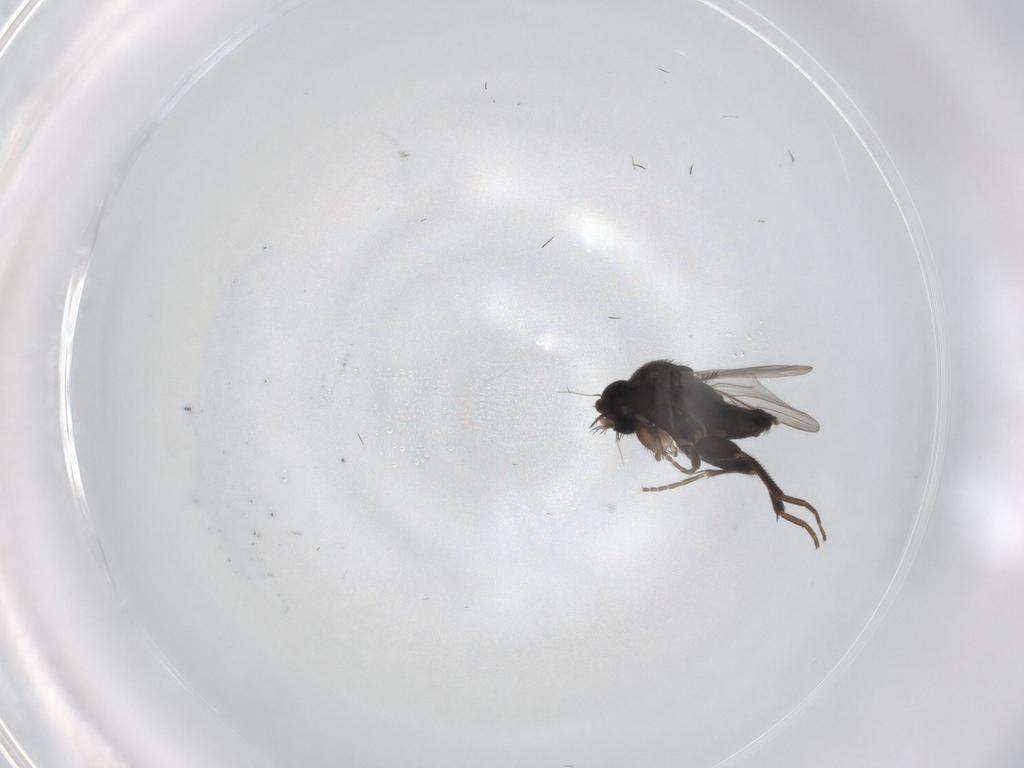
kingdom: Animalia
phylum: Arthropoda
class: Insecta
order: Diptera
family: Phoridae
